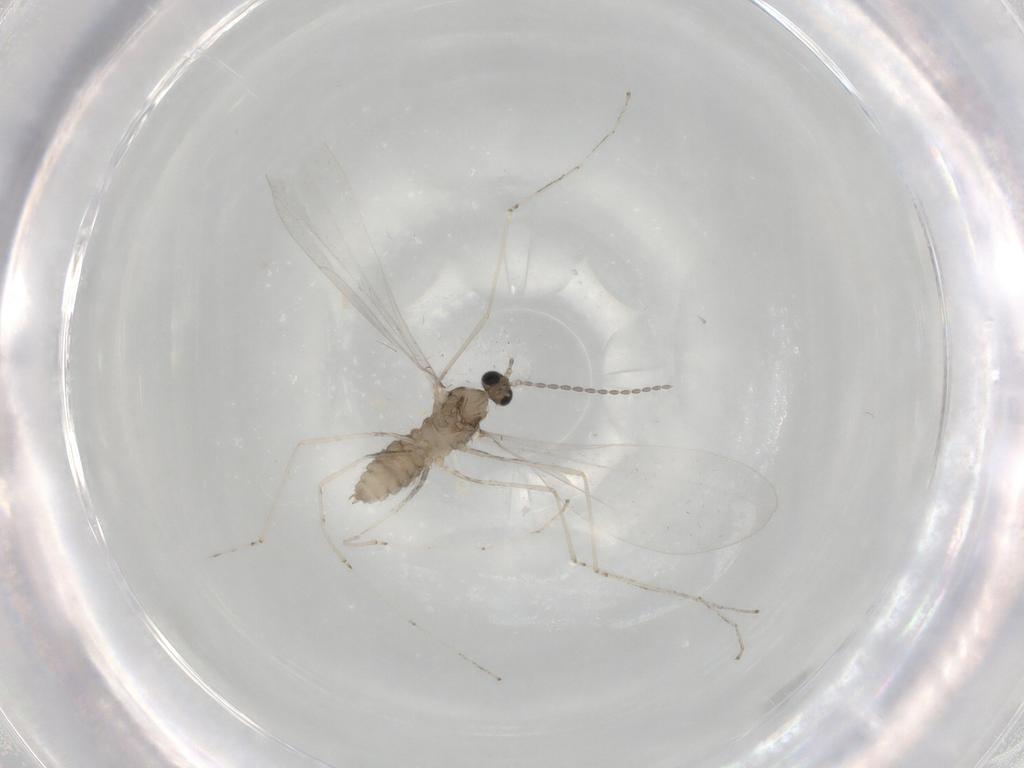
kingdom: Animalia
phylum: Arthropoda
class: Insecta
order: Diptera
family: Cecidomyiidae
